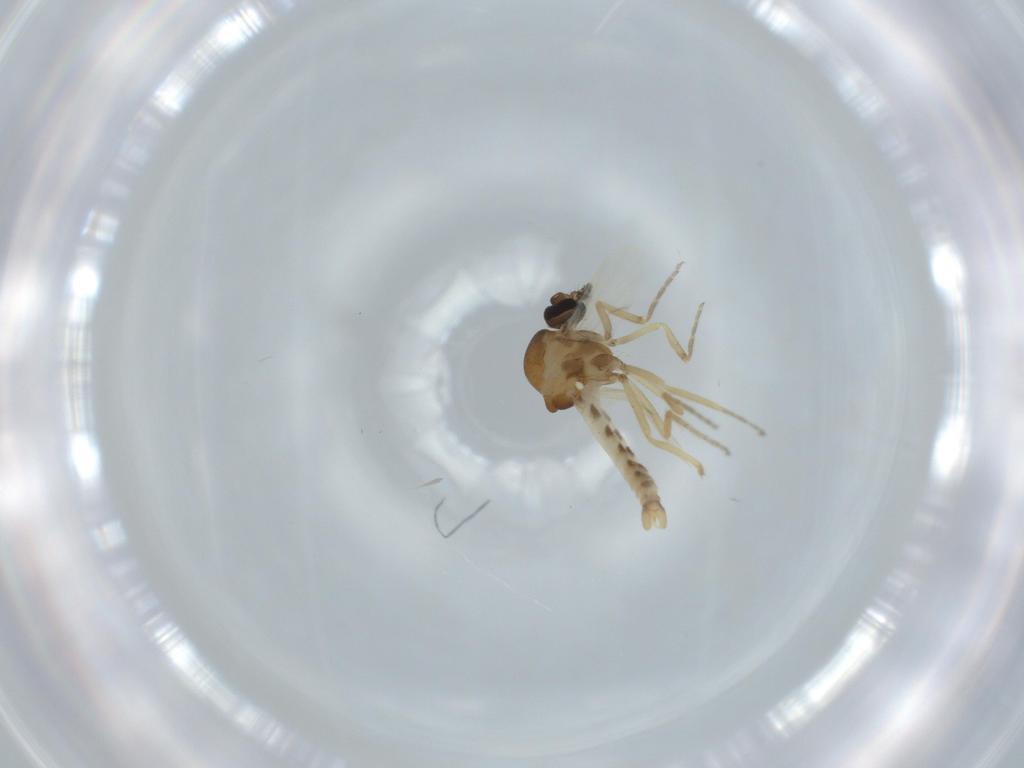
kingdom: Animalia
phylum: Arthropoda
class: Insecta
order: Diptera
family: Ceratopogonidae
